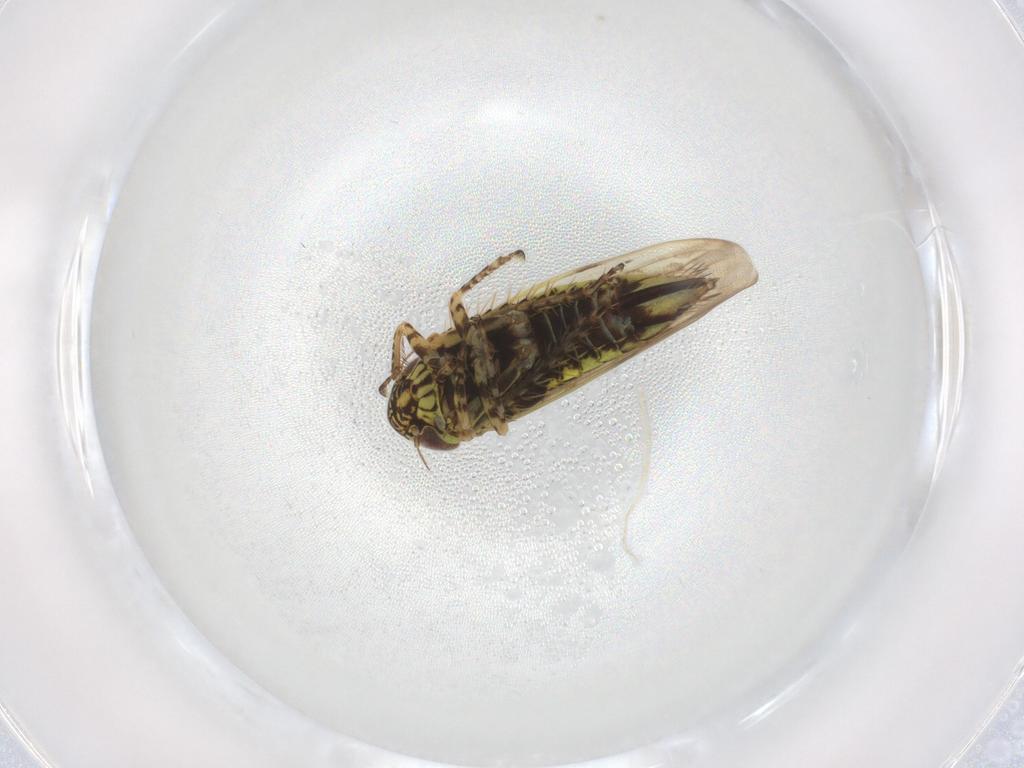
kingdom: Animalia
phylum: Arthropoda
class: Insecta
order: Hemiptera
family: Cicadellidae
